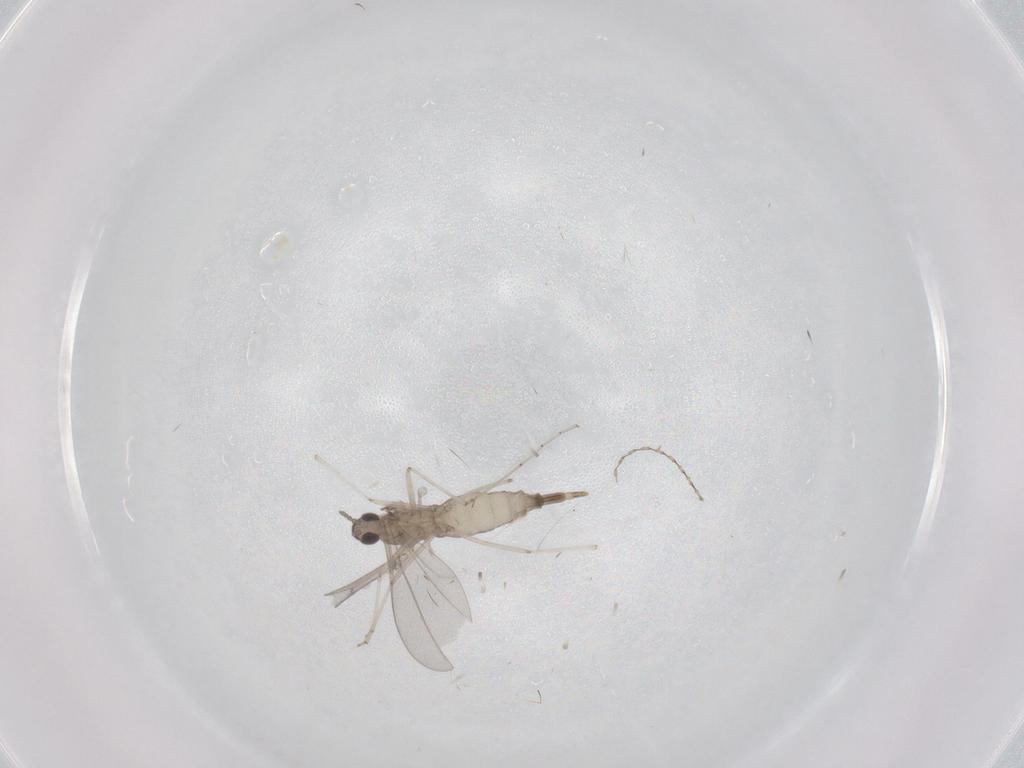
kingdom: Animalia
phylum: Arthropoda
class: Insecta
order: Diptera
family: Cecidomyiidae
